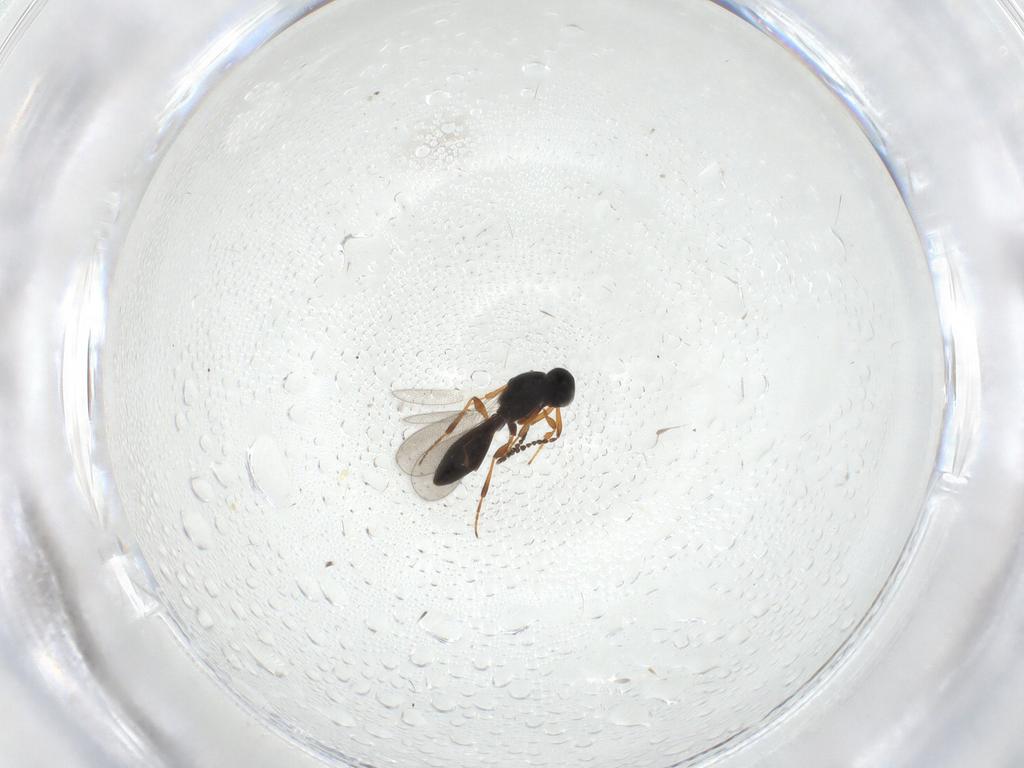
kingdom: Animalia
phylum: Arthropoda
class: Insecta
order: Hymenoptera
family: Platygastridae
